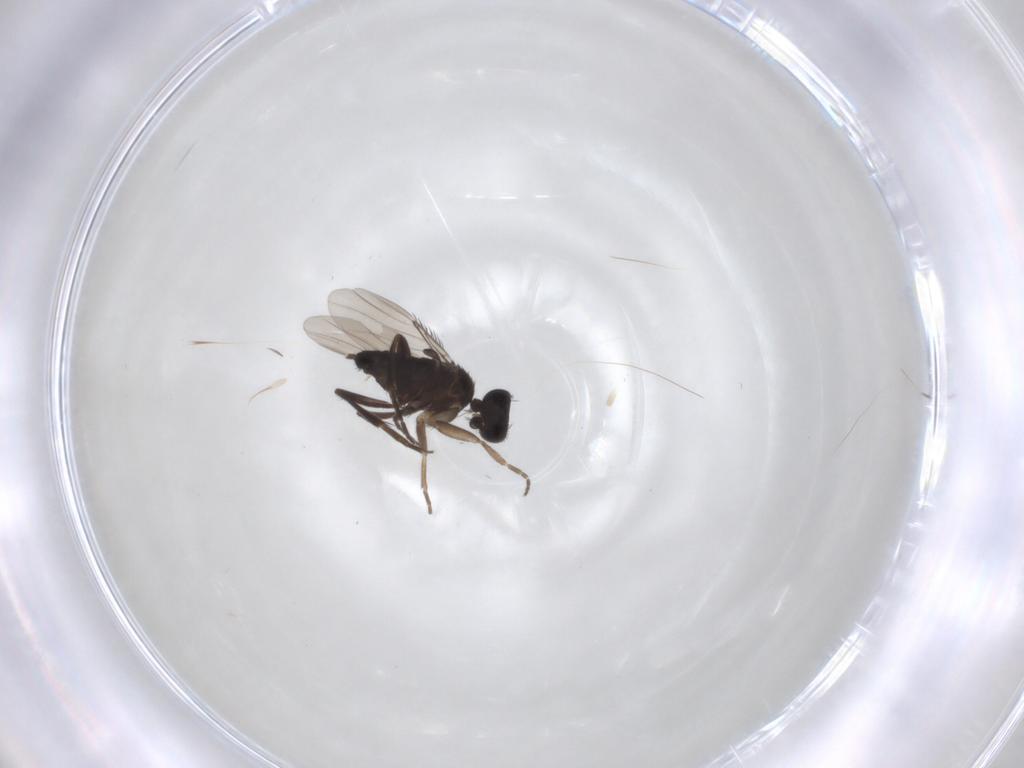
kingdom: Animalia
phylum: Arthropoda
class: Insecta
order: Diptera
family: Phoridae
